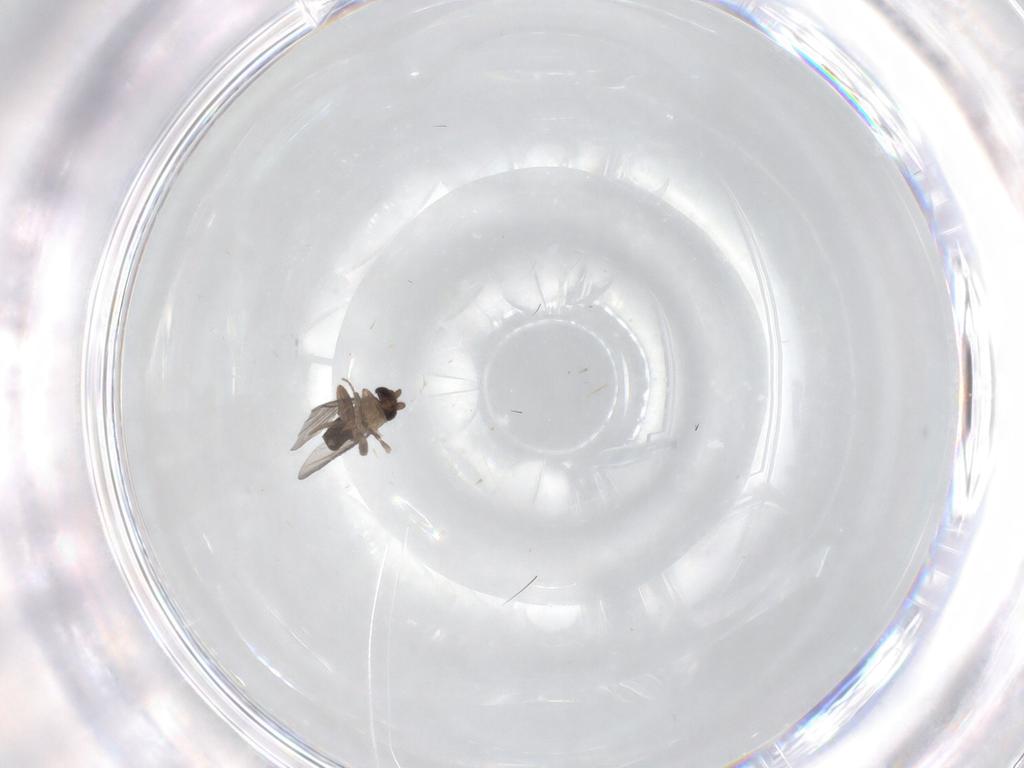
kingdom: Animalia
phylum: Arthropoda
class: Insecta
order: Diptera
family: Cecidomyiidae
